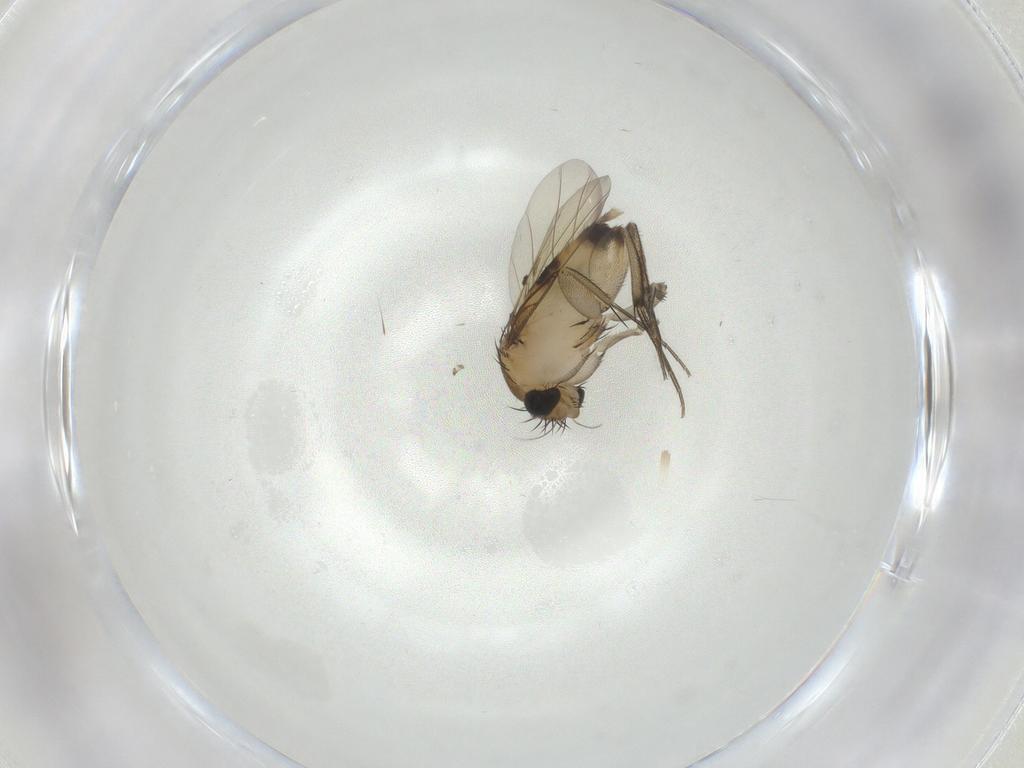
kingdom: Animalia
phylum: Arthropoda
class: Insecta
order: Diptera
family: Phoridae
